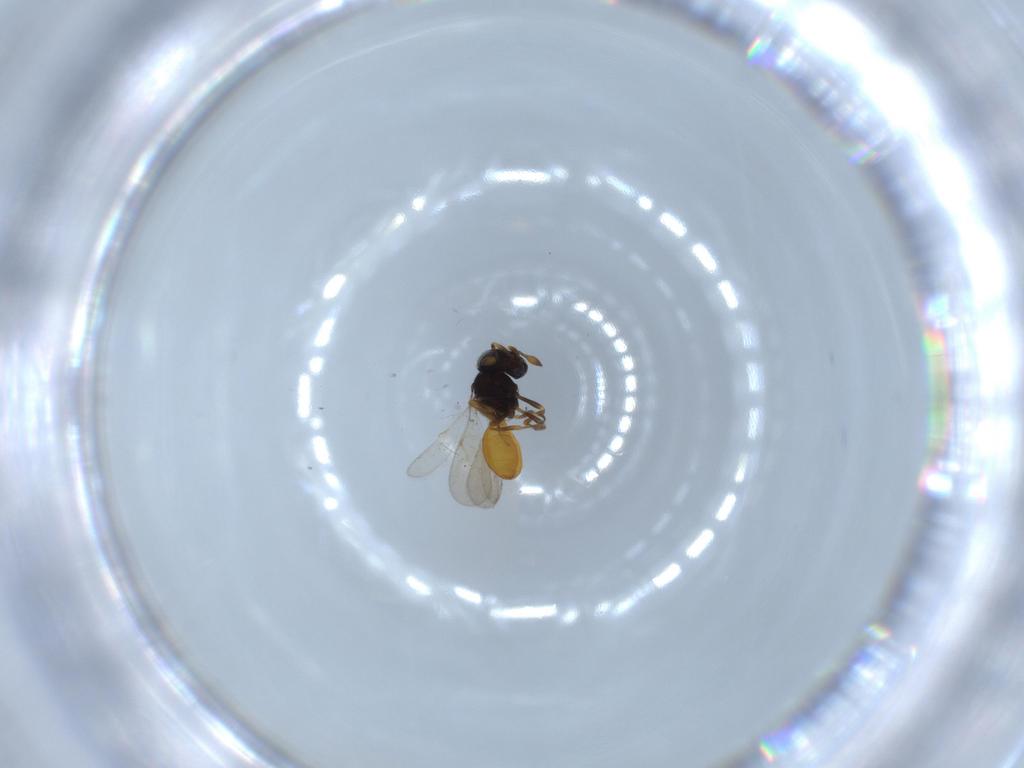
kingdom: Animalia
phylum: Arthropoda
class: Insecta
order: Hymenoptera
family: Scelionidae
